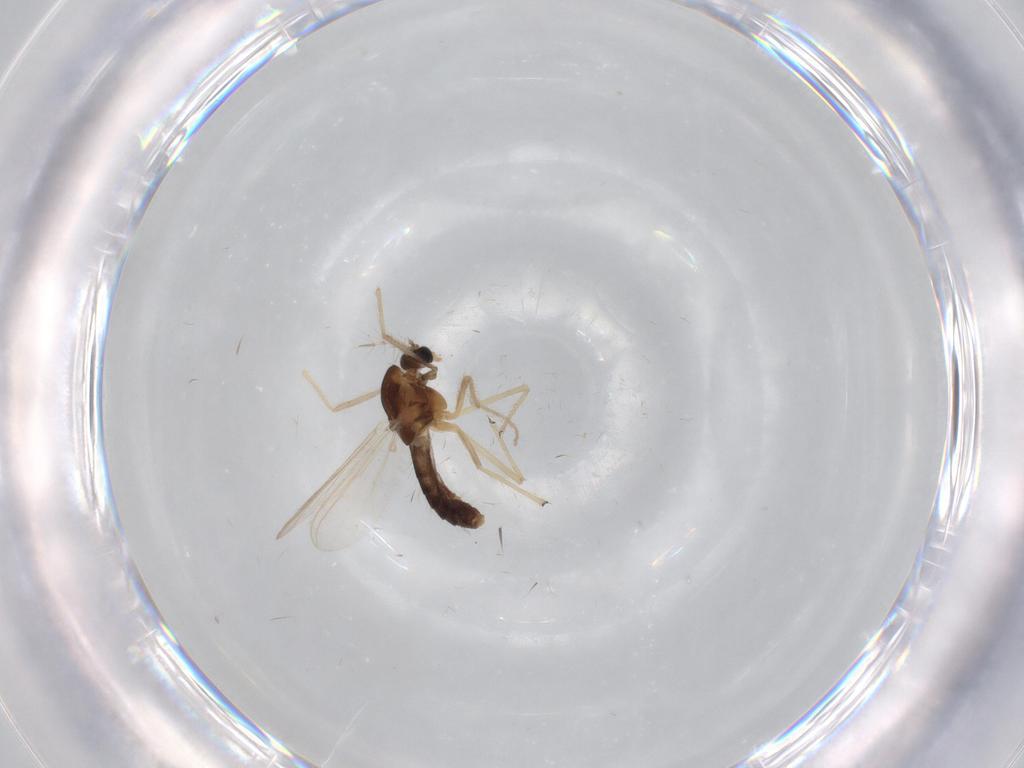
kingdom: Animalia
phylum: Arthropoda
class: Insecta
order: Diptera
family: Chironomidae
